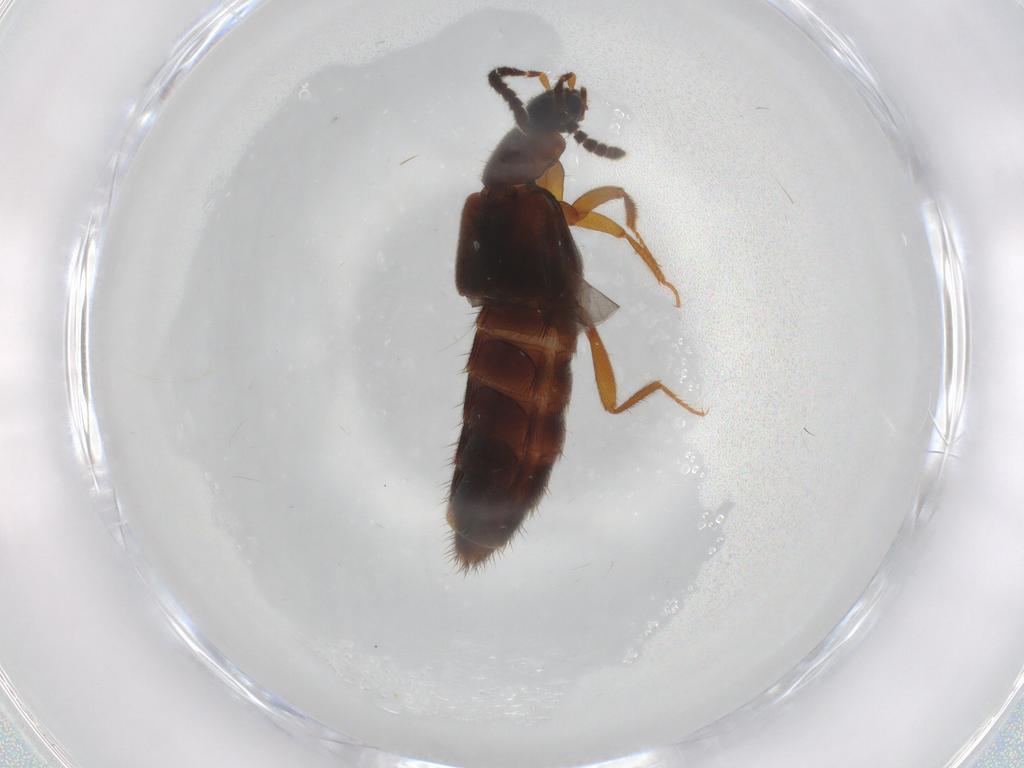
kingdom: Animalia
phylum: Arthropoda
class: Insecta
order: Coleoptera
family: Staphylinidae
